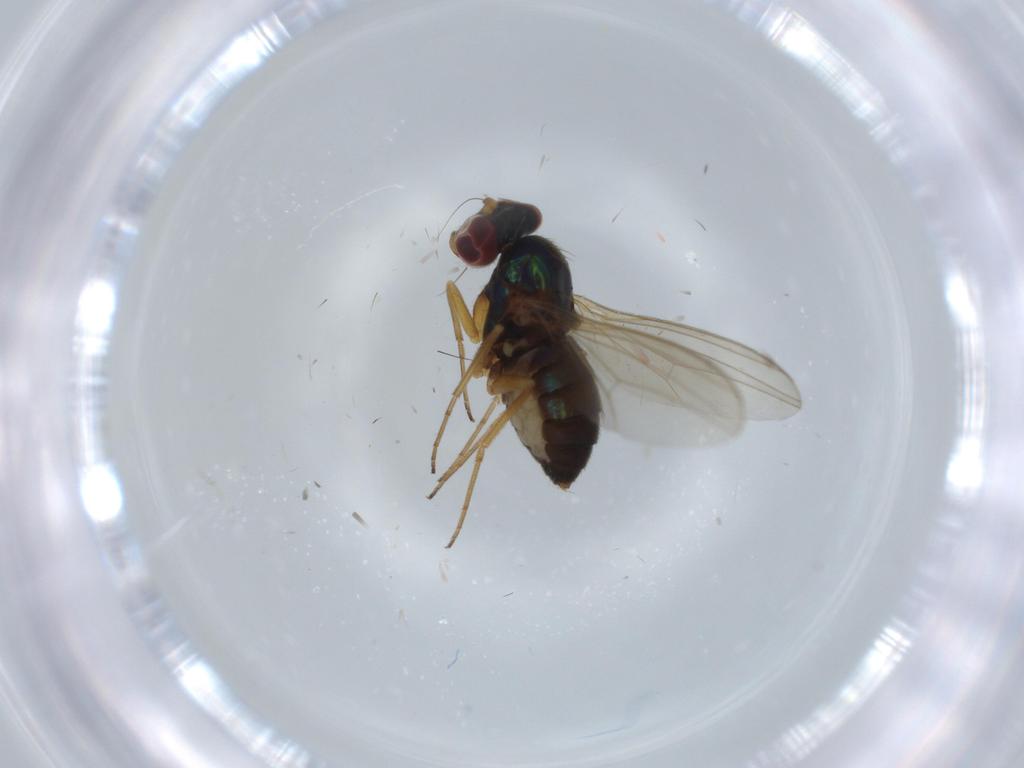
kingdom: Animalia
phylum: Arthropoda
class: Insecta
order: Diptera
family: Dolichopodidae
